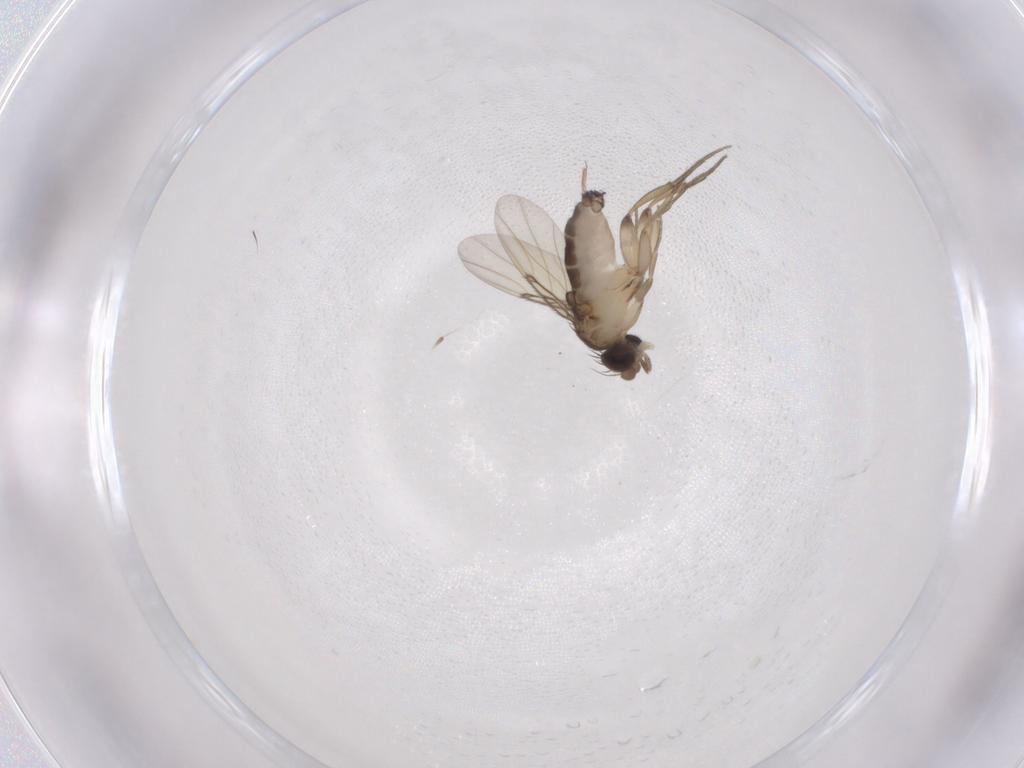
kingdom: Animalia
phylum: Arthropoda
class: Insecta
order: Diptera
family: Phoridae
